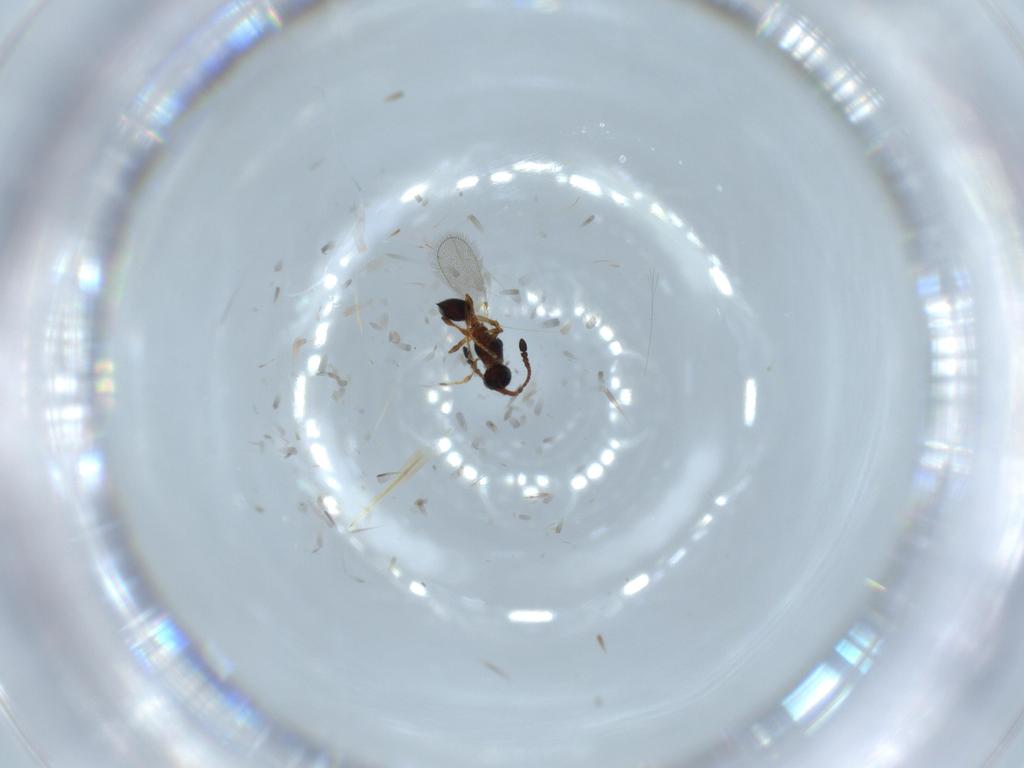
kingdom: Animalia
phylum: Arthropoda
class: Insecta
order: Hymenoptera
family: Diapriidae
